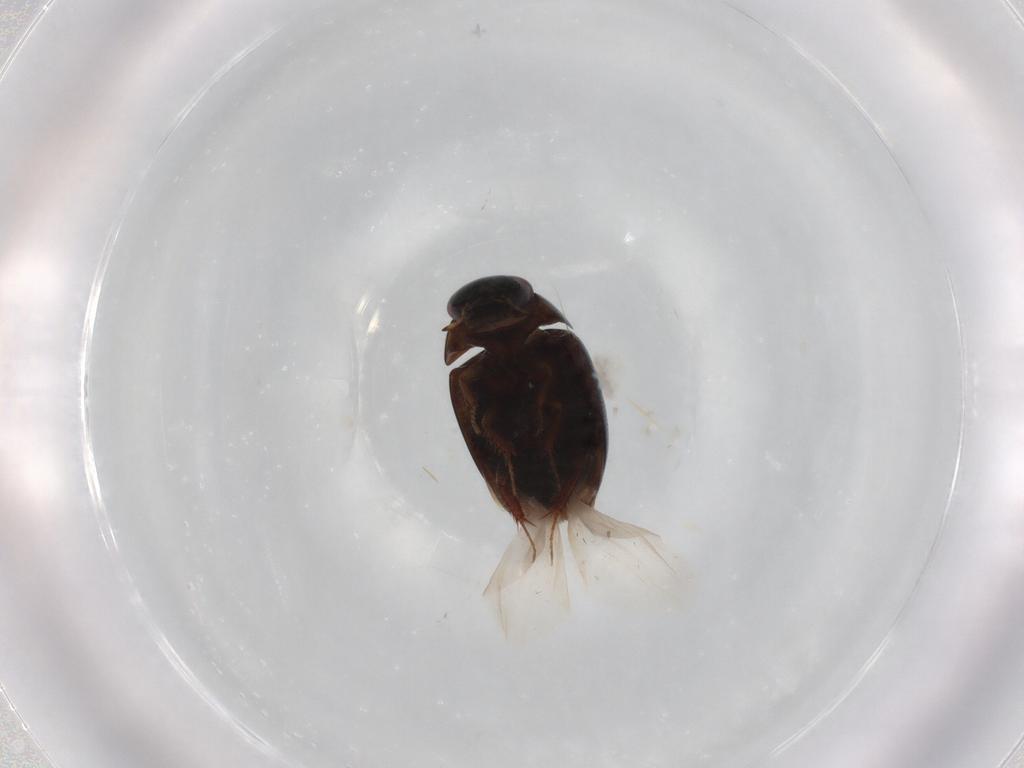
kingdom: Animalia
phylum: Arthropoda
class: Insecta
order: Coleoptera
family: Hydrophilidae
